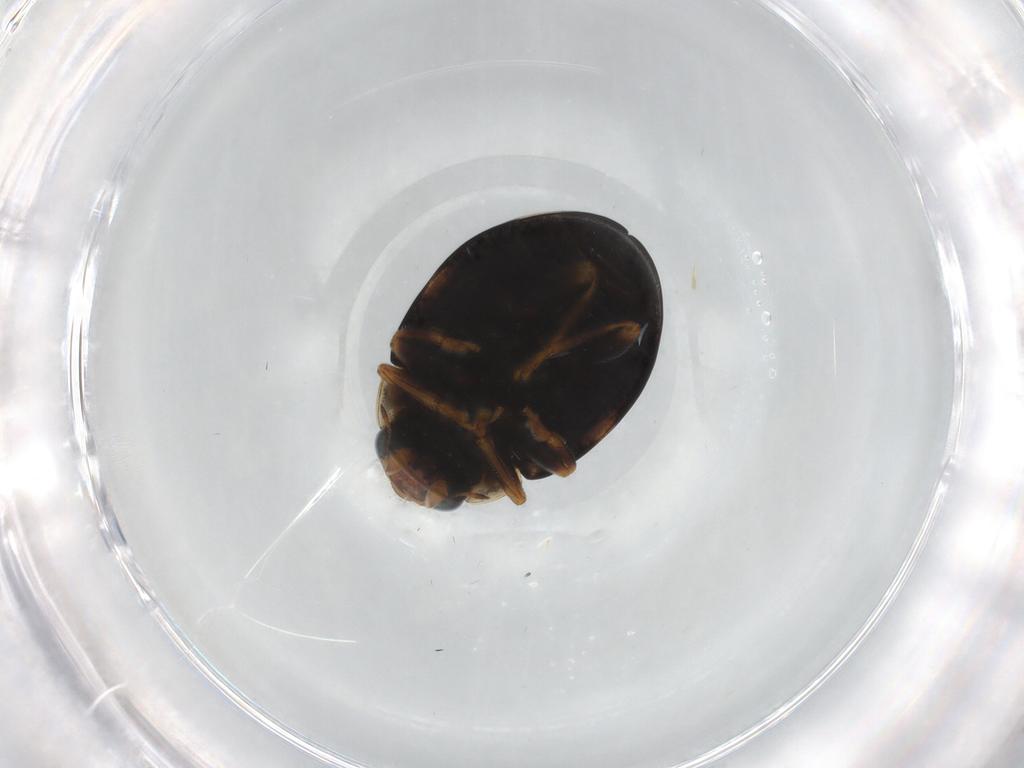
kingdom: Animalia
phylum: Arthropoda
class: Insecta
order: Coleoptera
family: Coccinellidae
